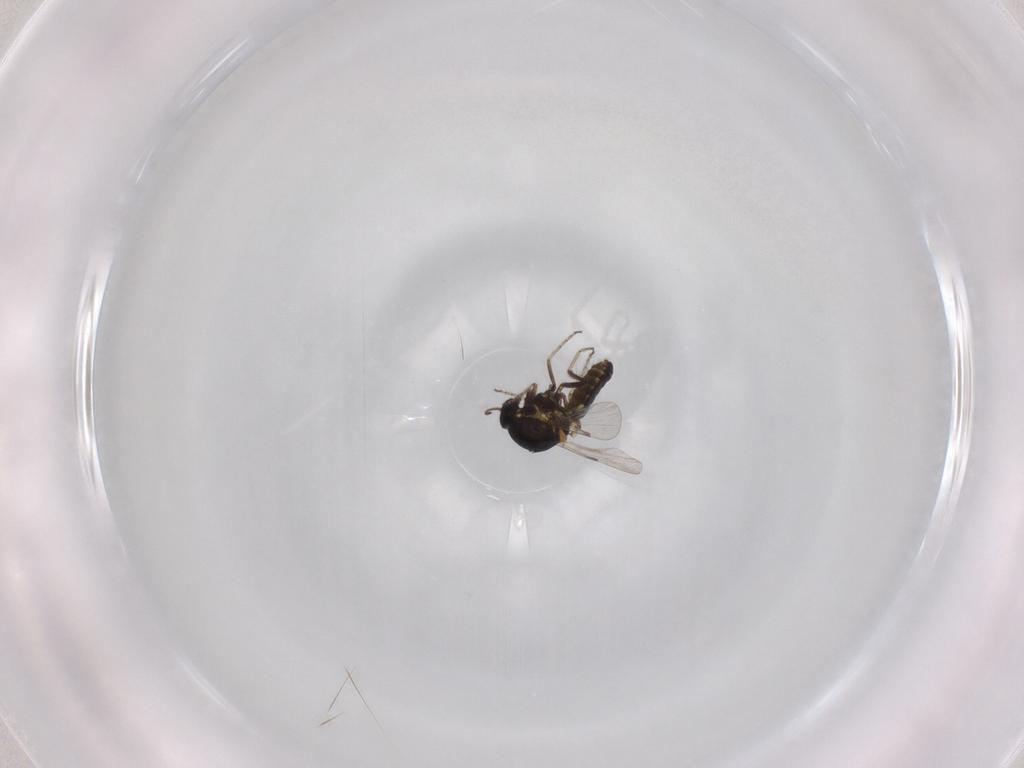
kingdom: Animalia
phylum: Arthropoda
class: Insecta
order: Diptera
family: Ceratopogonidae
